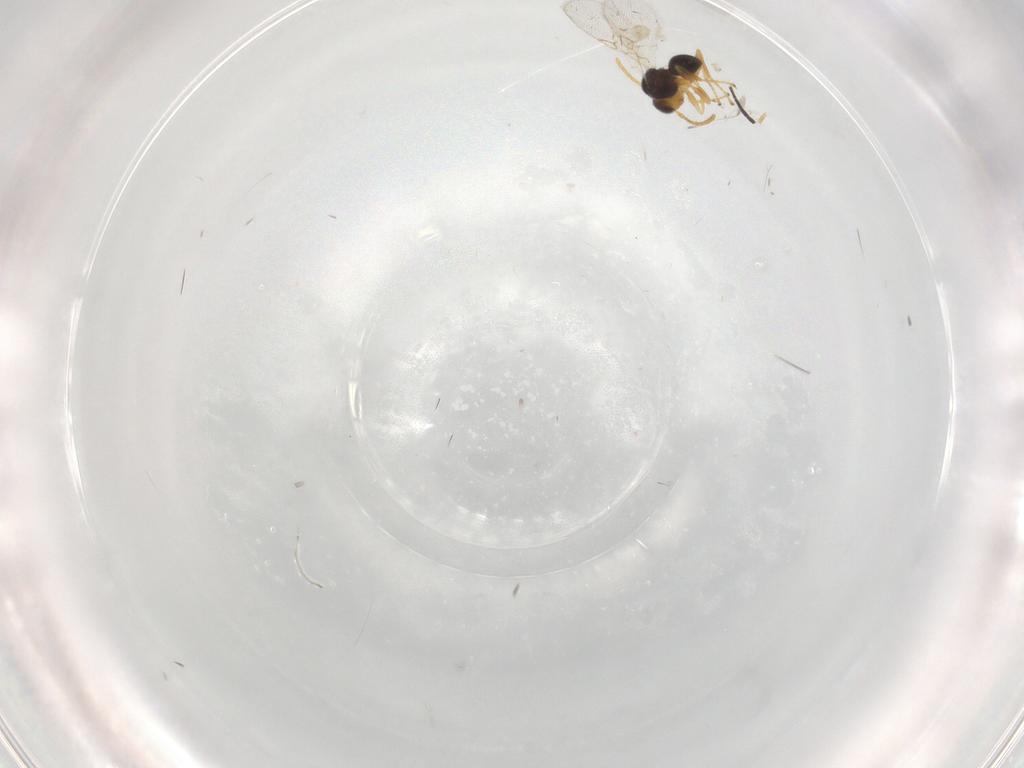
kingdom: Animalia
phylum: Arthropoda
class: Insecta
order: Hymenoptera
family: Figitidae
